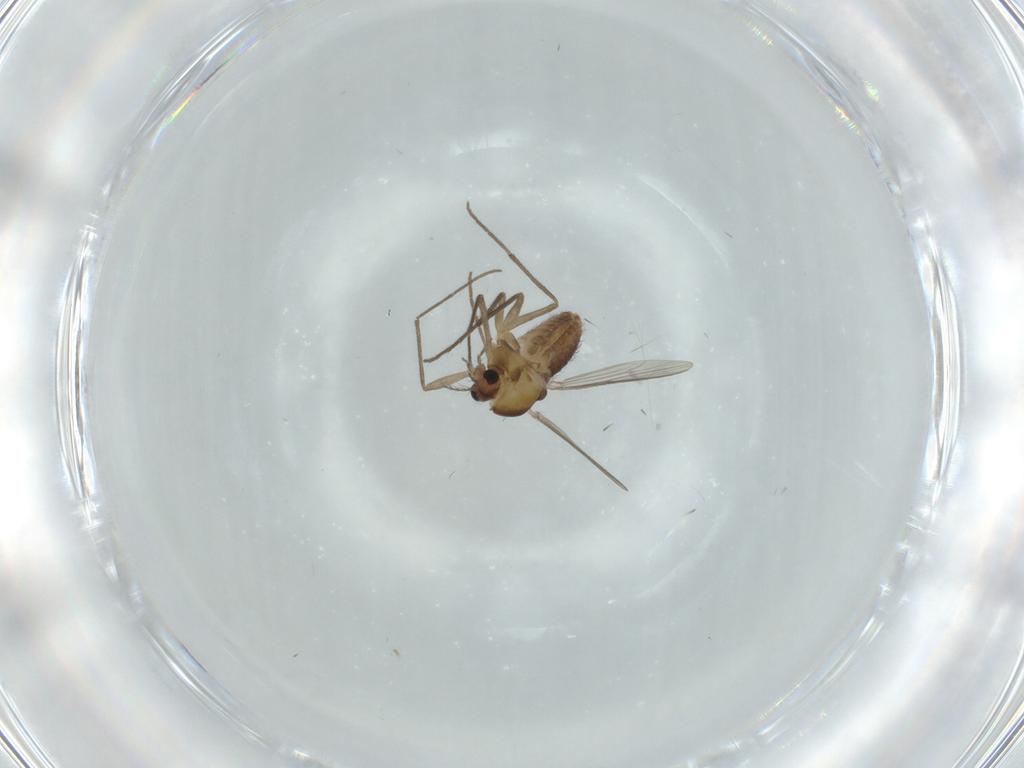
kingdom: Animalia
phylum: Arthropoda
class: Insecta
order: Diptera
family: Chironomidae
